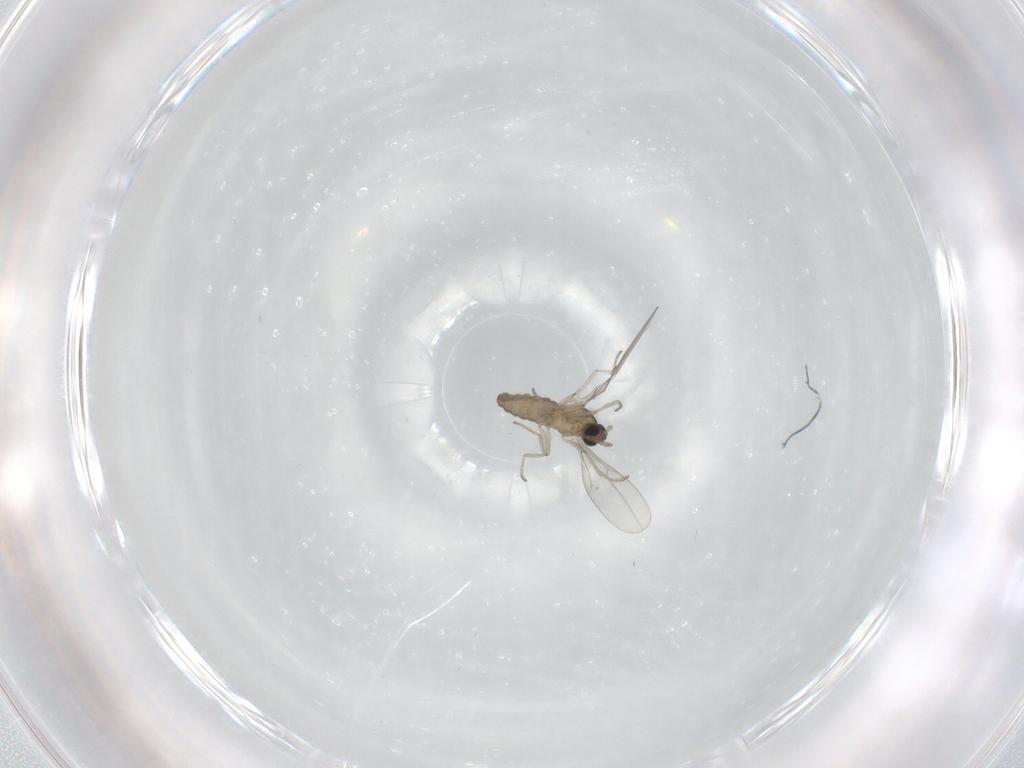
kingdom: Animalia
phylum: Arthropoda
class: Insecta
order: Diptera
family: Cecidomyiidae
